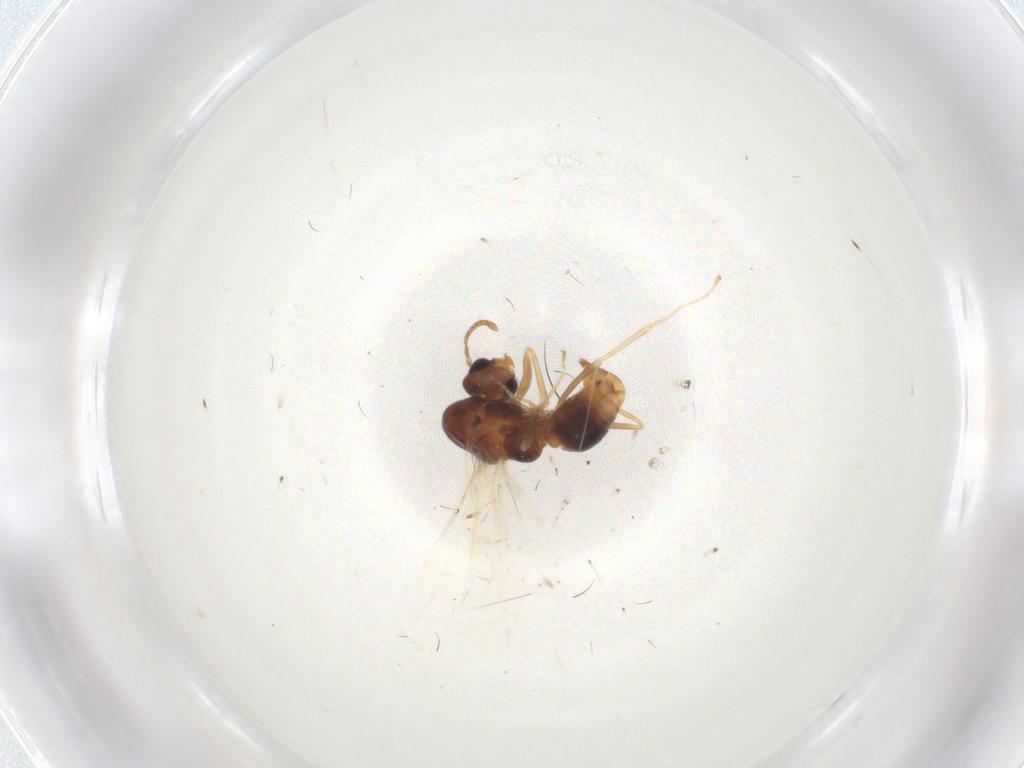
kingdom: Animalia
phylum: Arthropoda
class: Insecta
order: Hymenoptera
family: Formicidae
